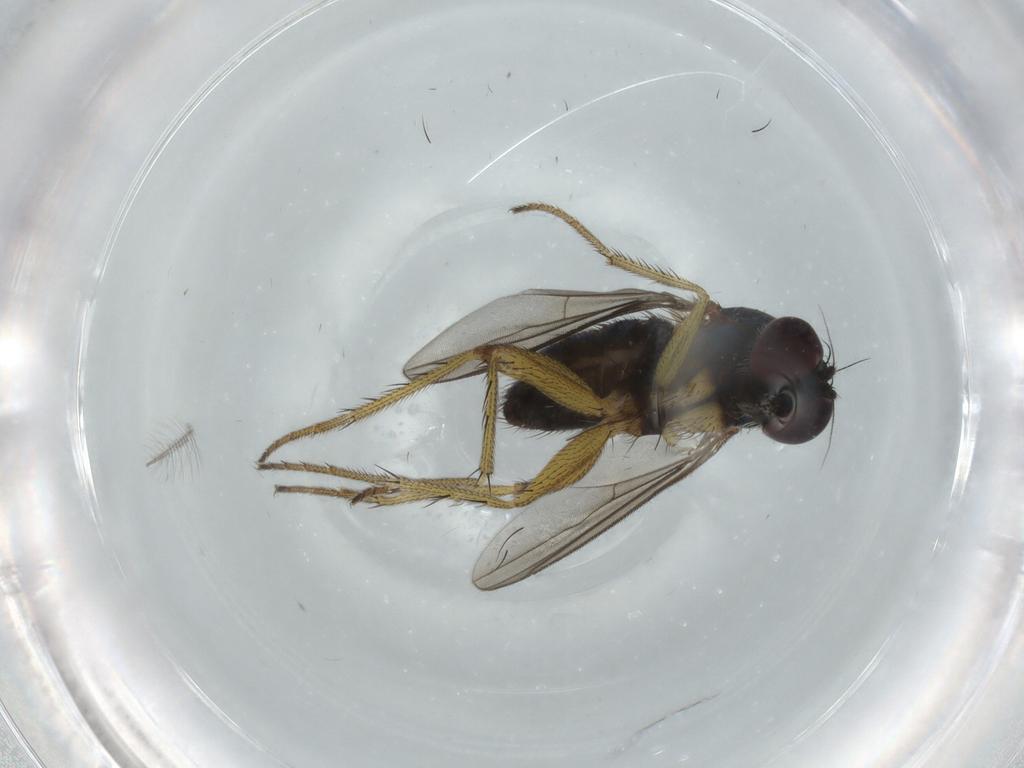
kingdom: Animalia
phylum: Arthropoda
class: Insecta
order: Diptera
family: Dolichopodidae
